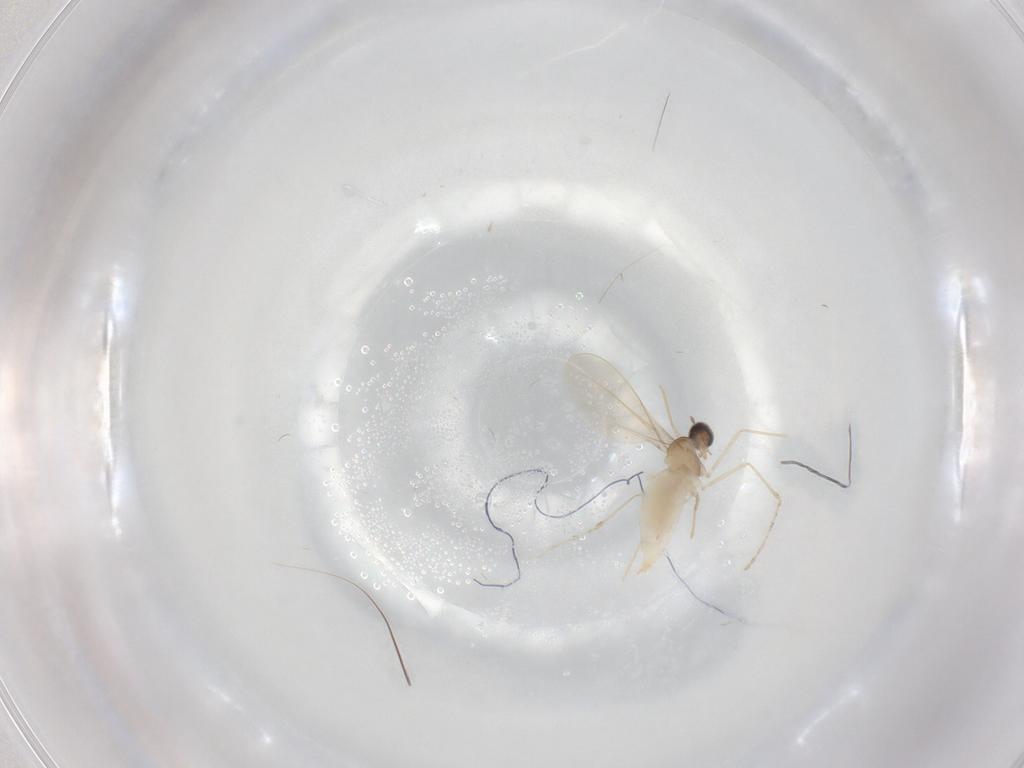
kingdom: Animalia
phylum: Arthropoda
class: Insecta
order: Diptera
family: Cecidomyiidae
